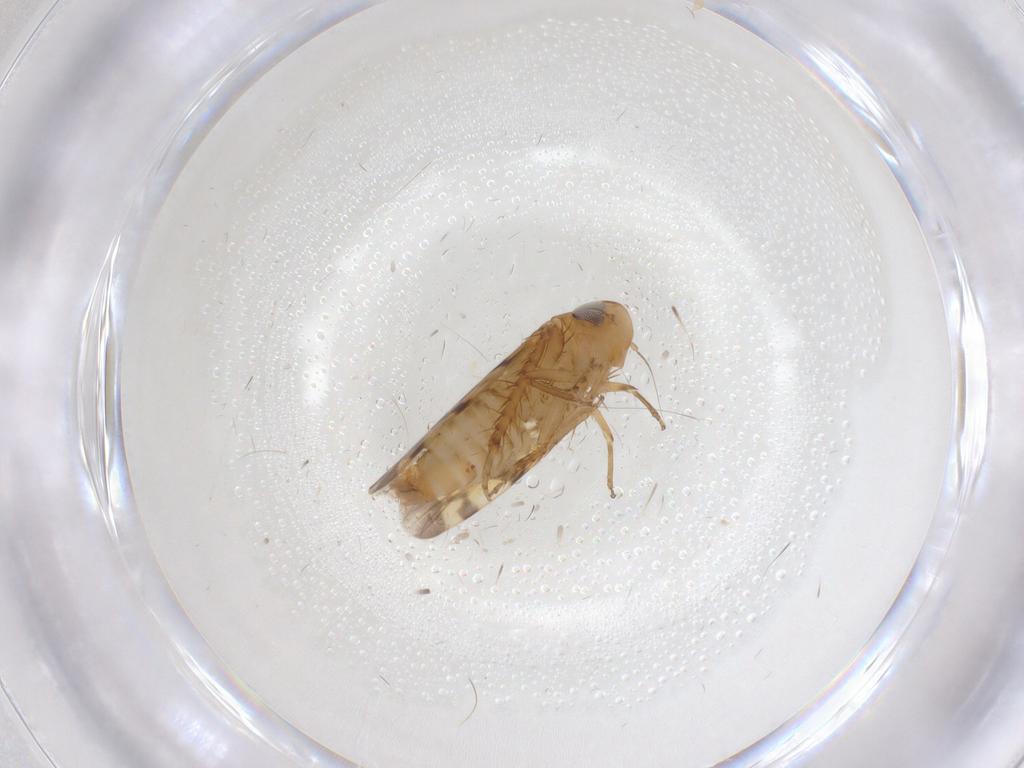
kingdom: Animalia
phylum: Arthropoda
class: Insecta
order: Hemiptera
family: Cicadellidae
